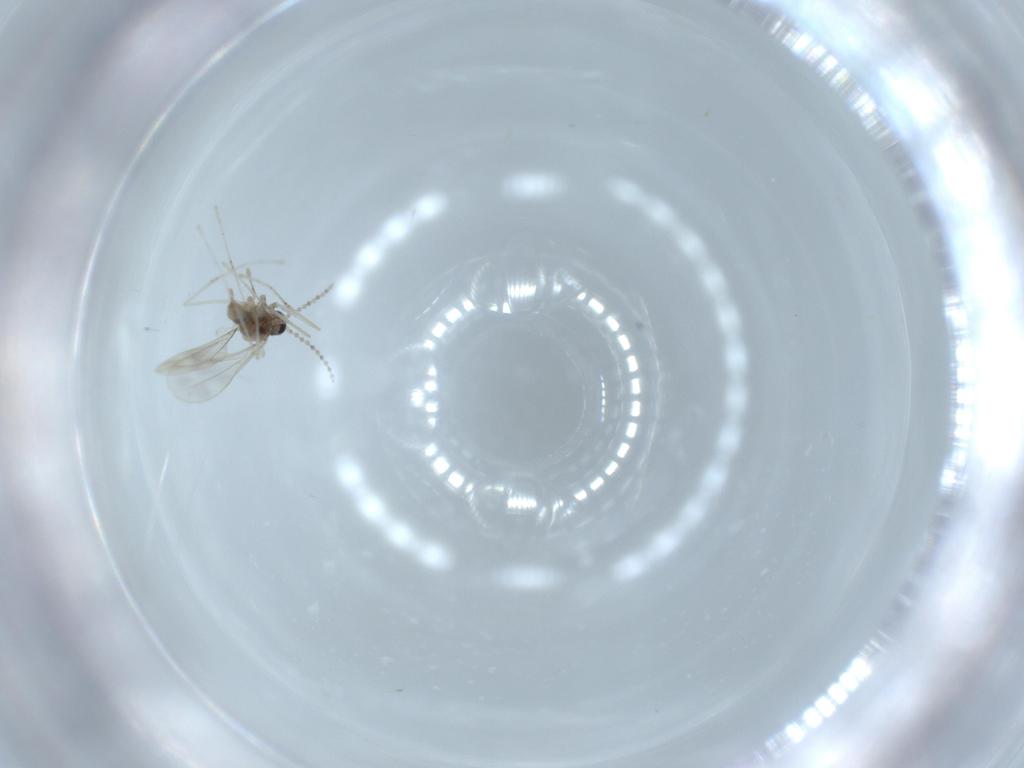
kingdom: Animalia
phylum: Arthropoda
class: Insecta
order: Diptera
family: Cecidomyiidae
